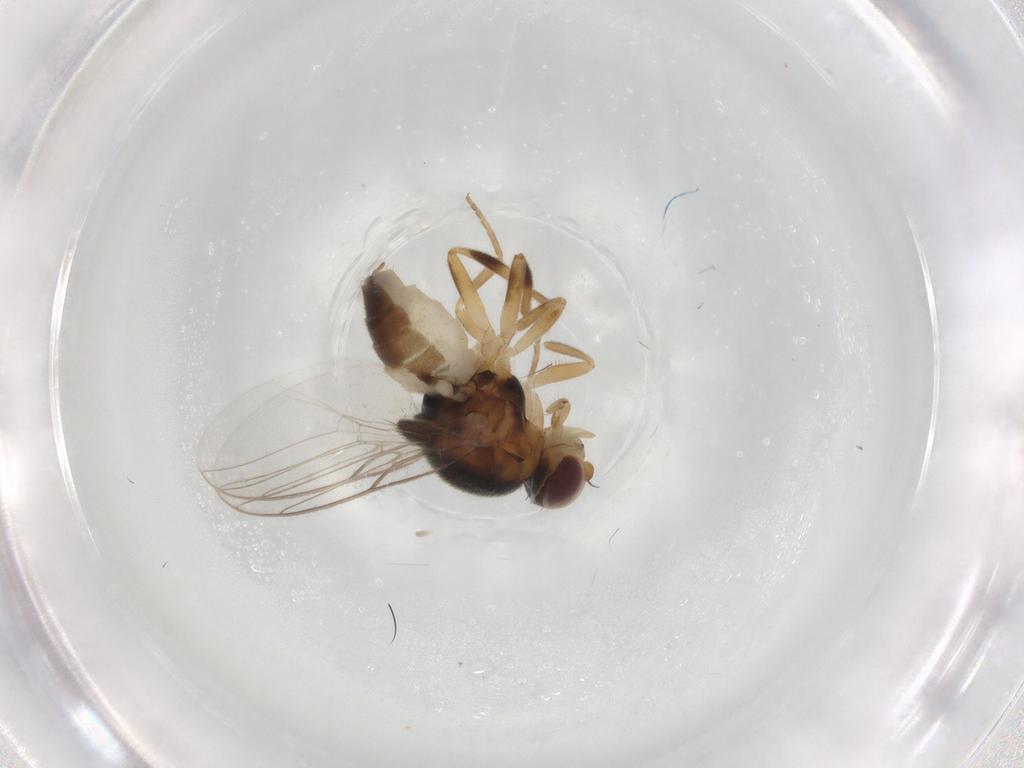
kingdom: Animalia
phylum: Arthropoda
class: Insecta
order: Diptera
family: Chloropidae
